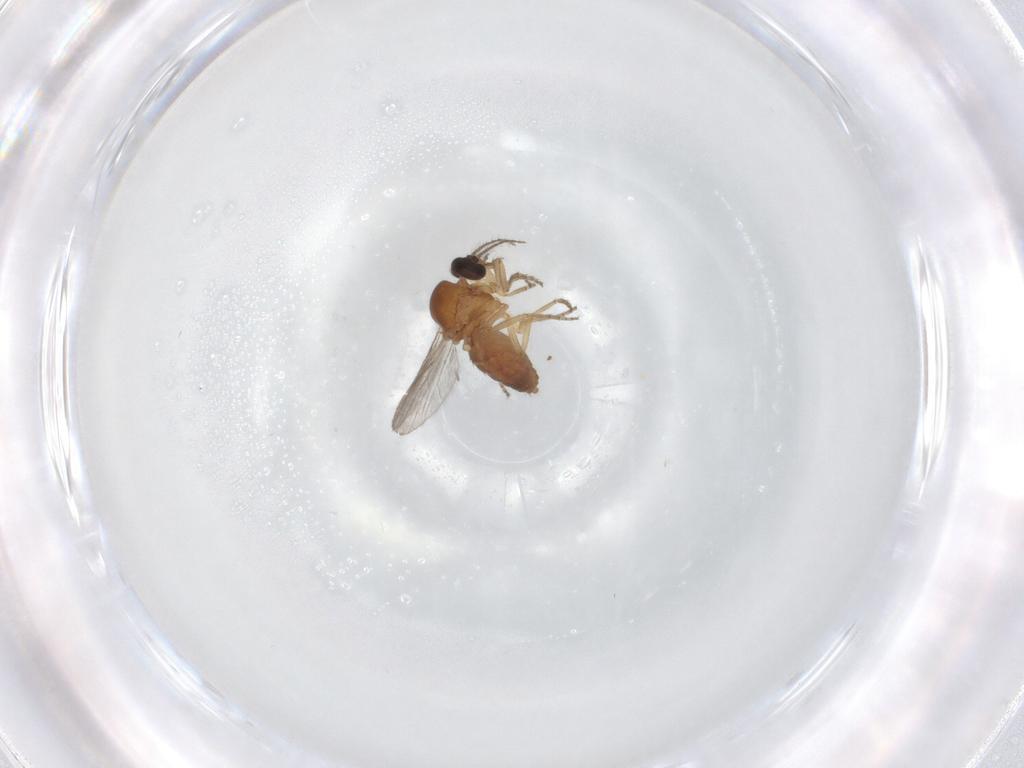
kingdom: Animalia
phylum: Arthropoda
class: Insecta
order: Diptera
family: Ceratopogonidae
